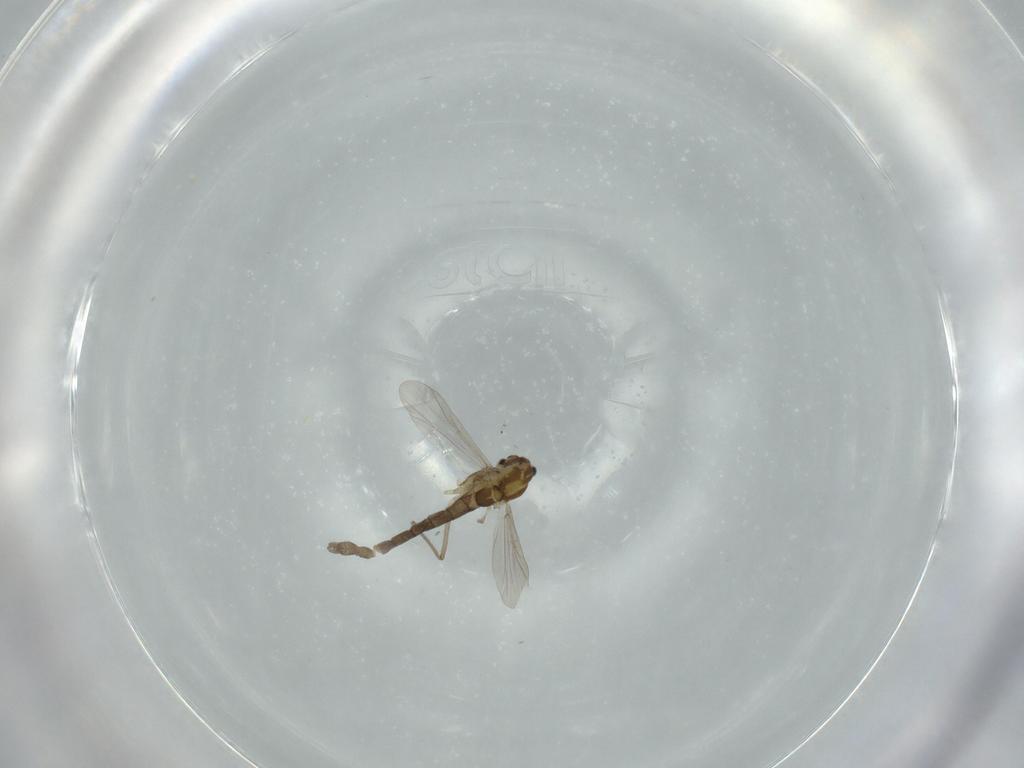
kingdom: Animalia
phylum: Arthropoda
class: Insecta
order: Diptera
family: Chironomidae
